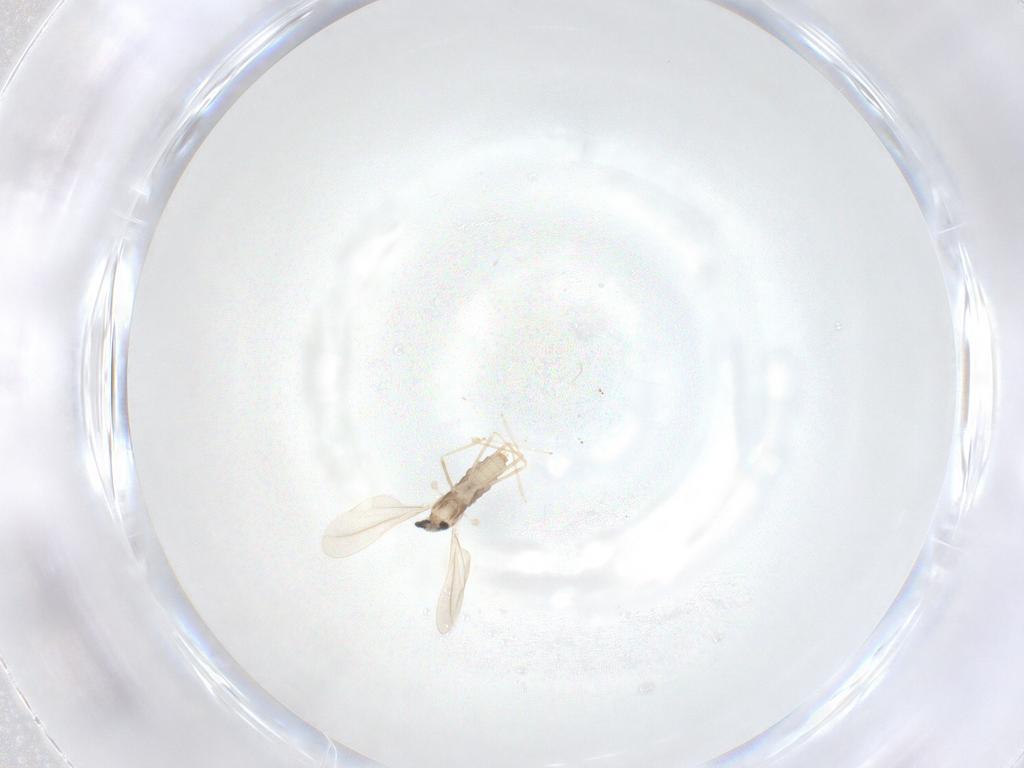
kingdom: Animalia
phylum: Arthropoda
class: Insecta
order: Diptera
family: Cecidomyiidae
